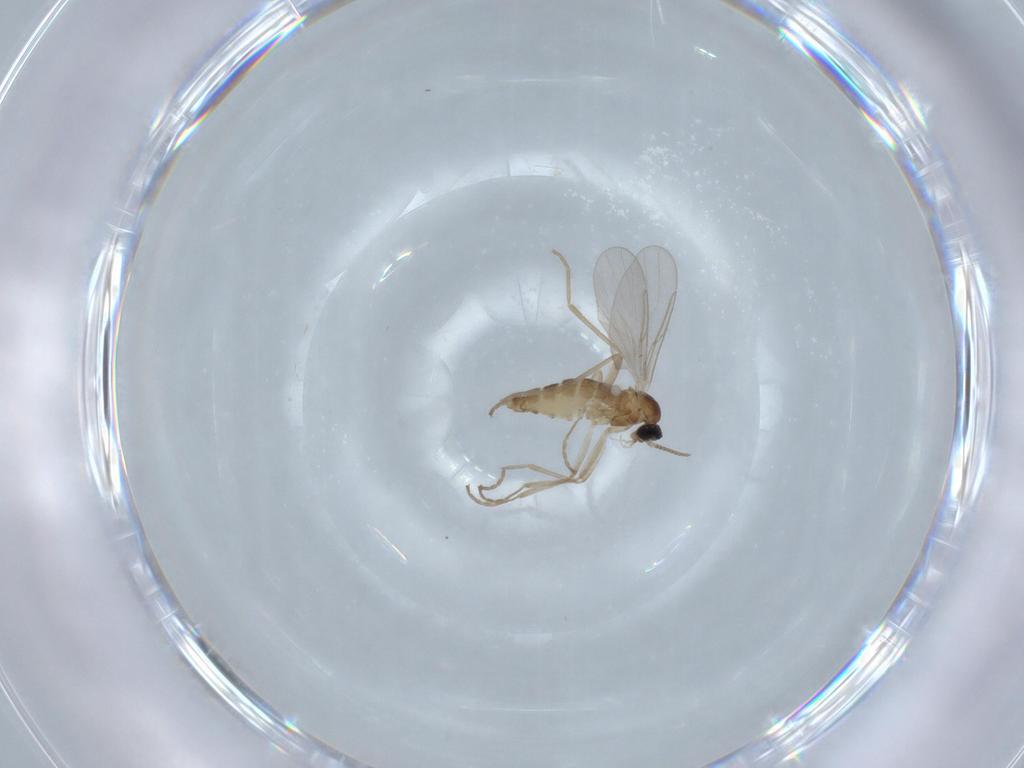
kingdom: Animalia
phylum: Arthropoda
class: Insecta
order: Diptera
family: Cecidomyiidae
